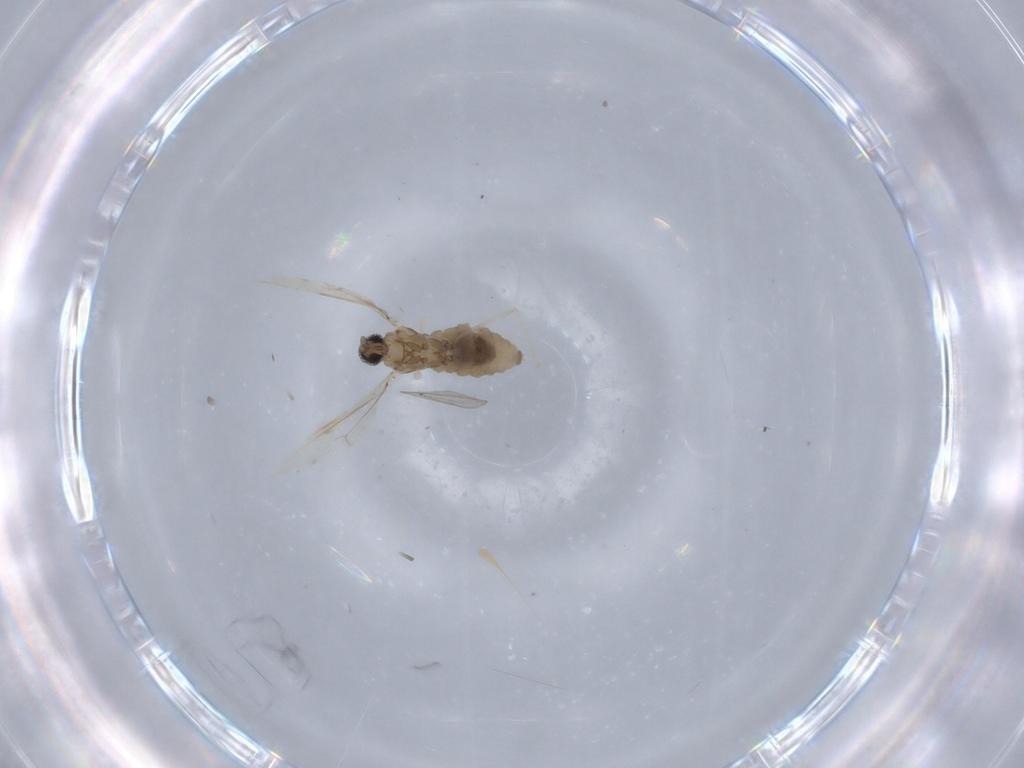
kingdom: Animalia
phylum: Arthropoda
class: Insecta
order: Diptera
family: Cecidomyiidae
